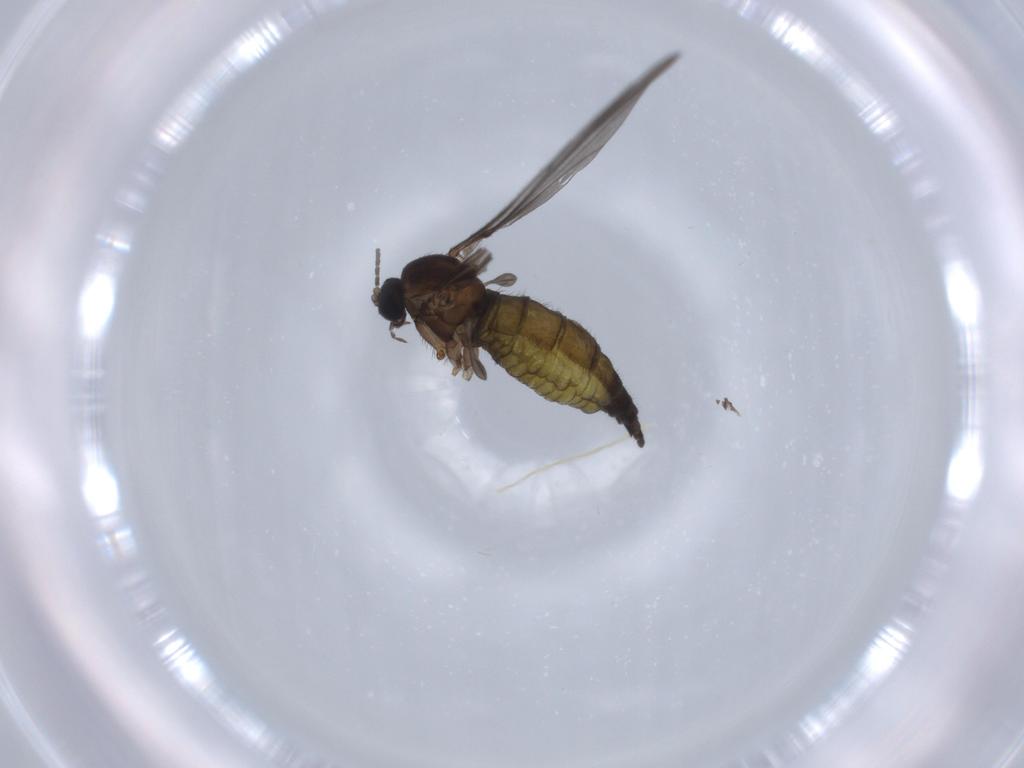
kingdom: Animalia
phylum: Arthropoda
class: Insecta
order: Diptera
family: Sciaridae
